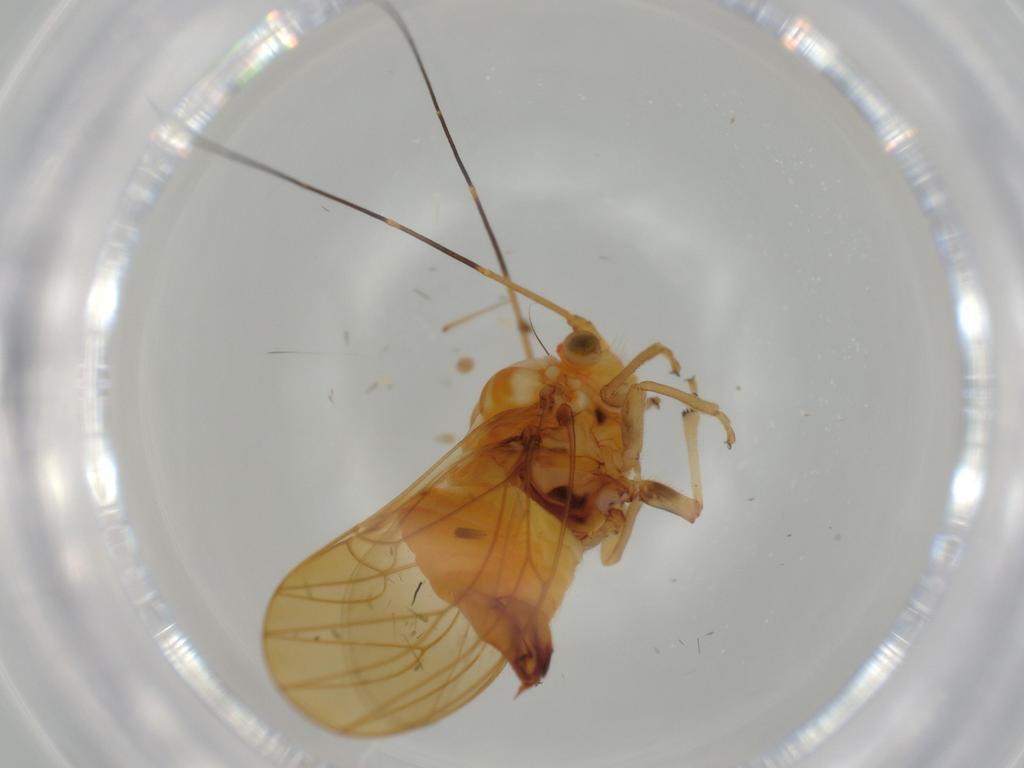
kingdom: Animalia
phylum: Arthropoda
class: Insecta
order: Hemiptera
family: Psyllidae
